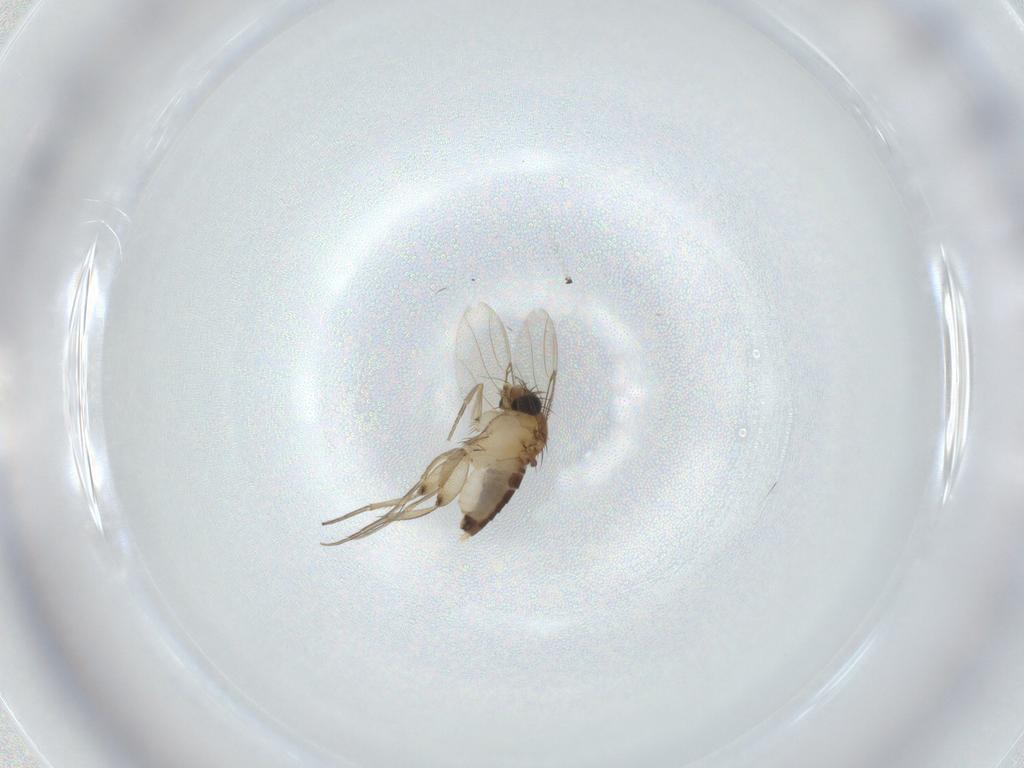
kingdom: Animalia
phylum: Arthropoda
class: Insecta
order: Diptera
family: Phoridae
